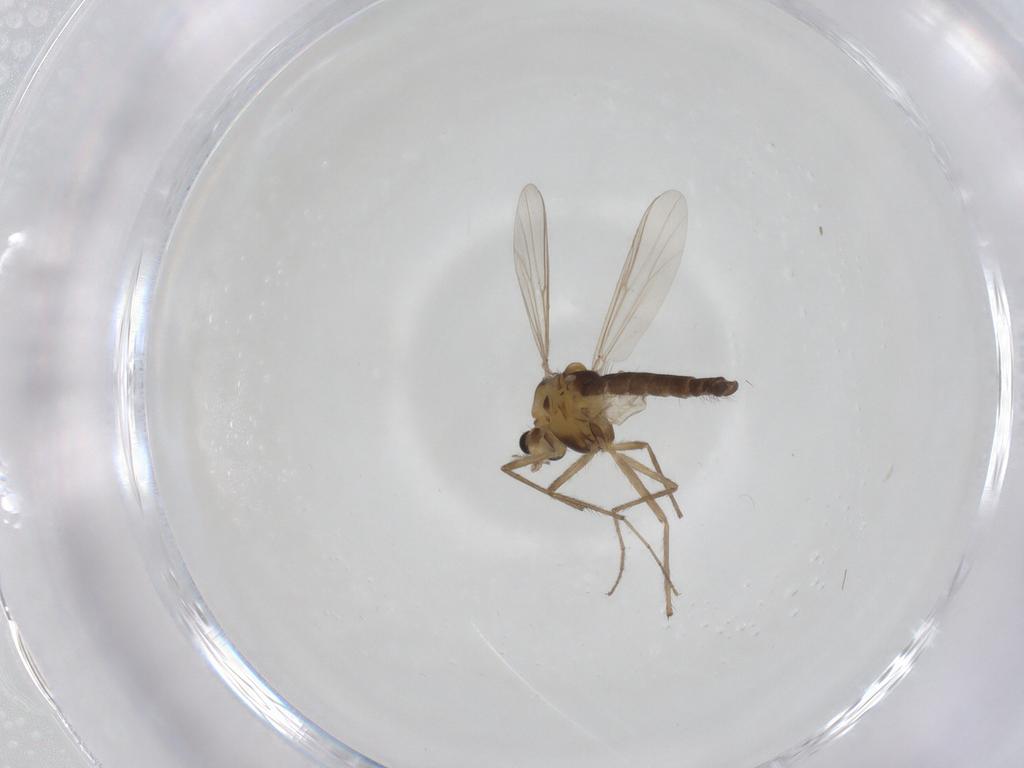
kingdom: Animalia
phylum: Arthropoda
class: Insecta
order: Diptera
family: Chironomidae
